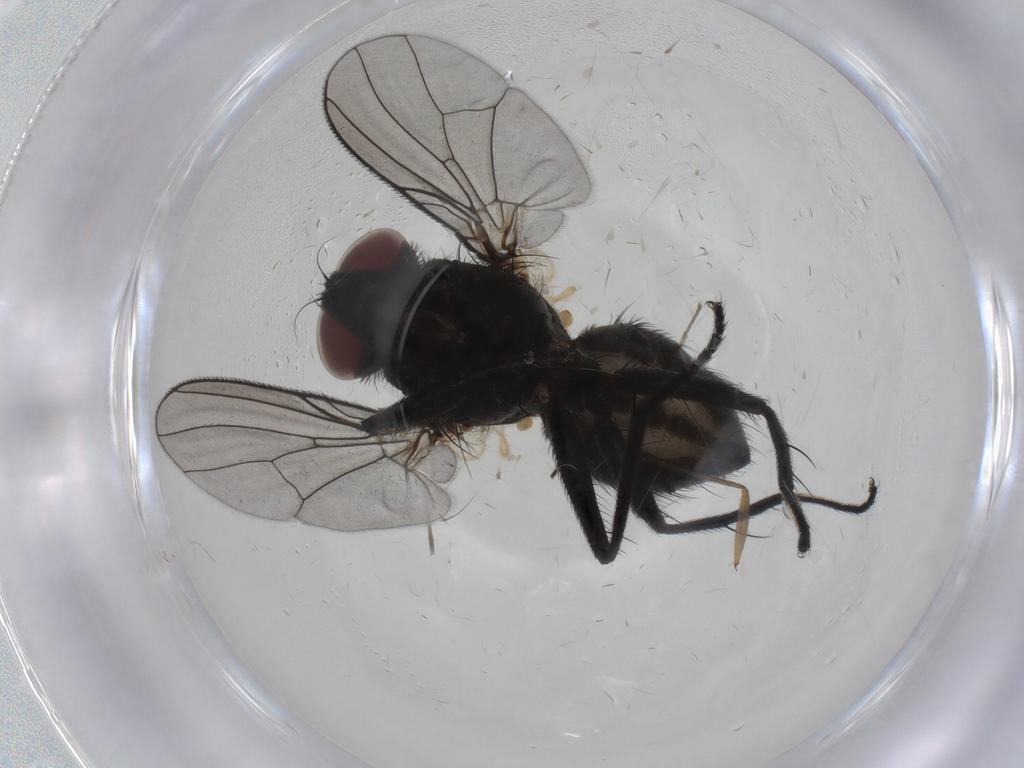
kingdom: Animalia
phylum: Arthropoda
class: Insecta
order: Diptera
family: Muscidae
